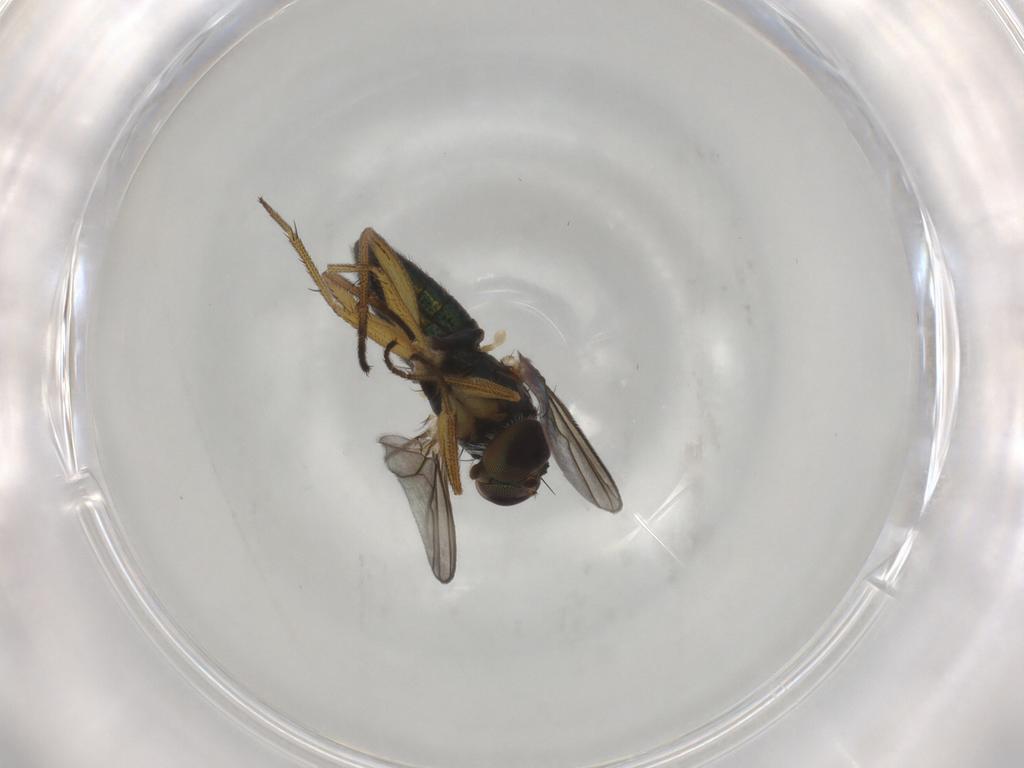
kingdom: Animalia
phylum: Arthropoda
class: Insecta
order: Diptera
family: Dolichopodidae
